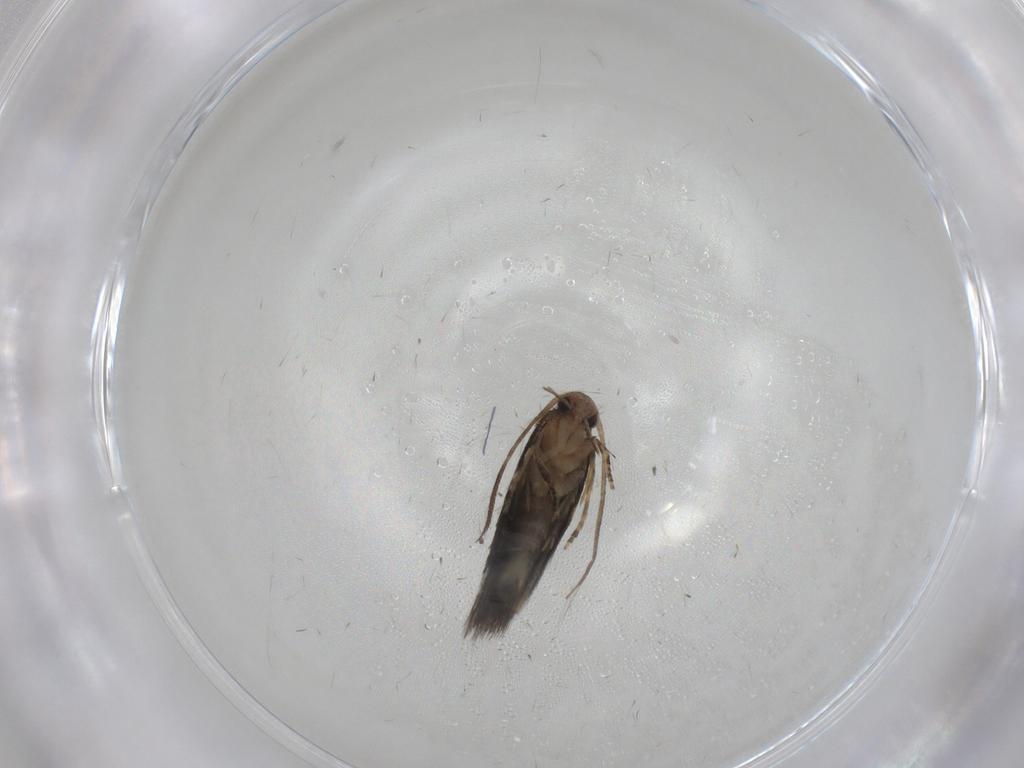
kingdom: Animalia
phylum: Arthropoda
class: Insecta
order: Lepidoptera
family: Elachistidae
